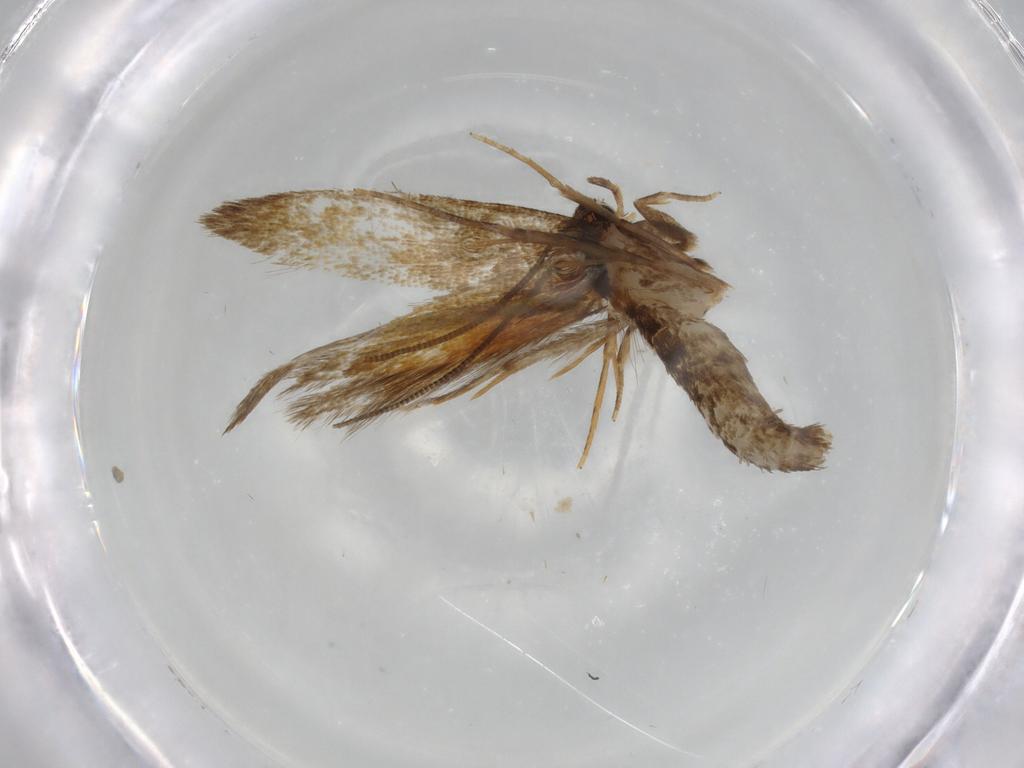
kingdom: Animalia
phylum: Arthropoda
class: Insecta
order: Lepidoptera
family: Tineidae
